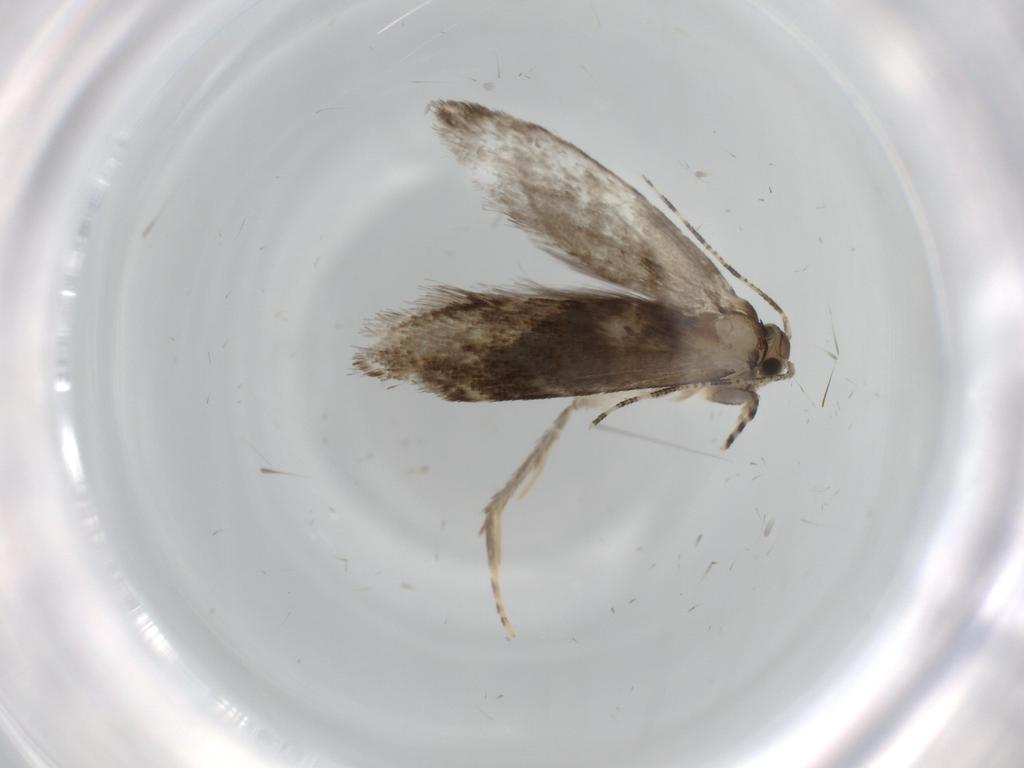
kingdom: Animalia
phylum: Arthropoda
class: Insecta
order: Lepidoptera
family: Tineidae
